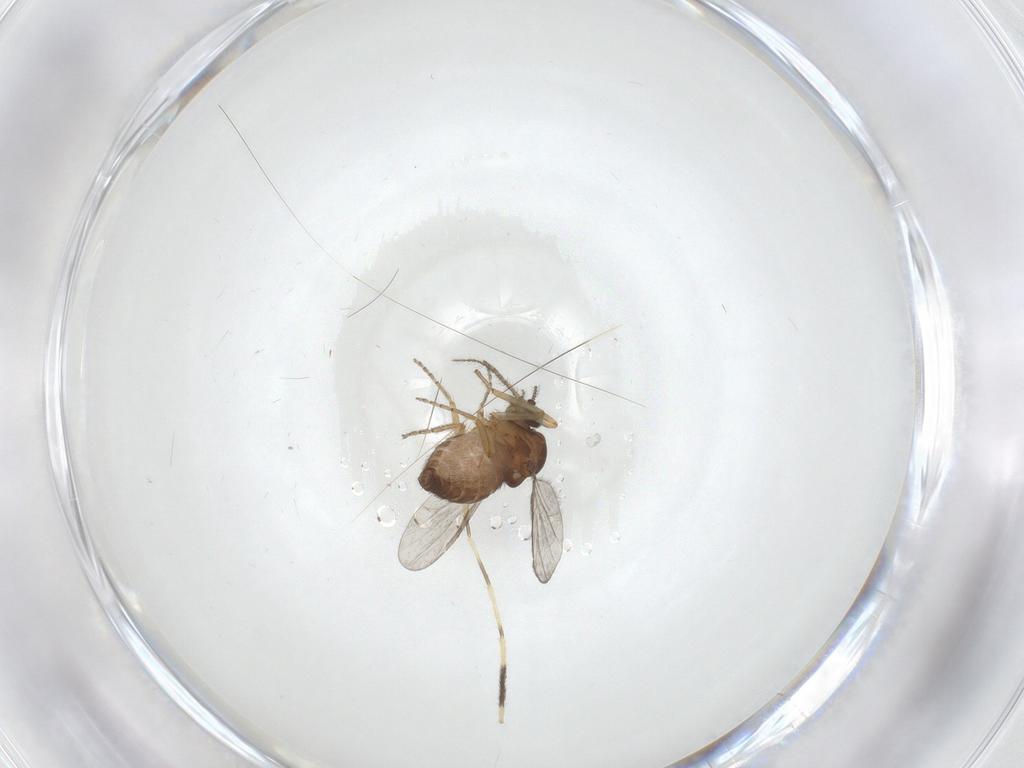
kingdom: Animalia
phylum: Arthropoda
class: Insecta
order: Diptera
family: Ceratopogonidae
